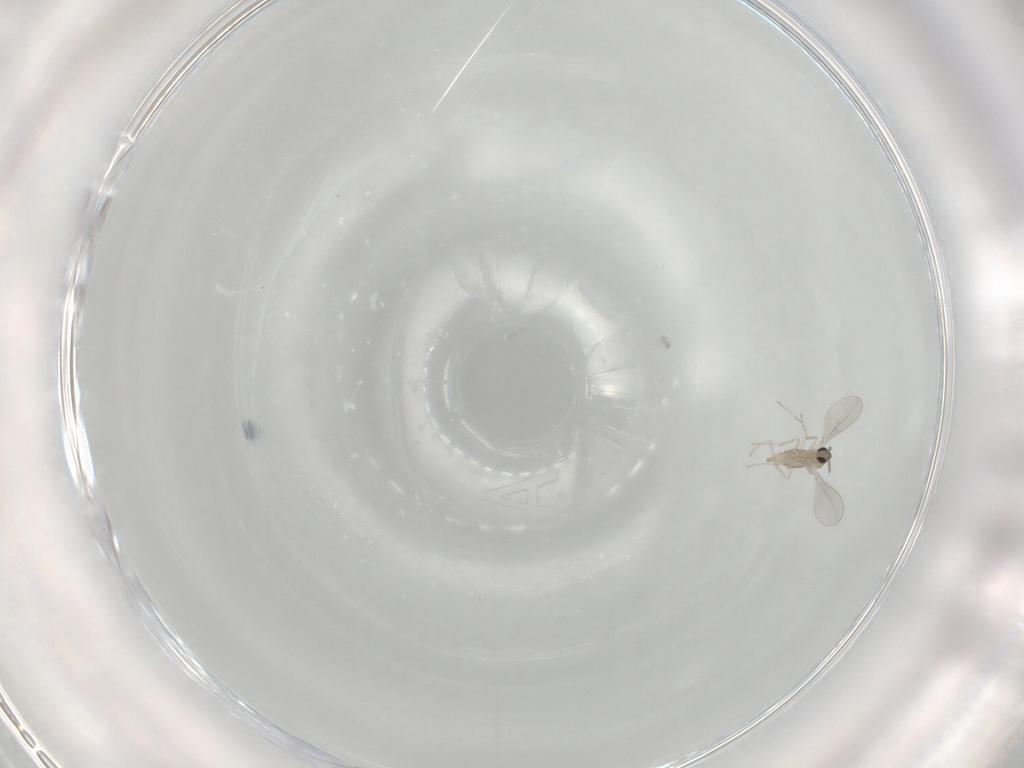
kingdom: Animalia
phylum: Arthropoda
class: Insecta
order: Diptera
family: Cecidomyiidae
